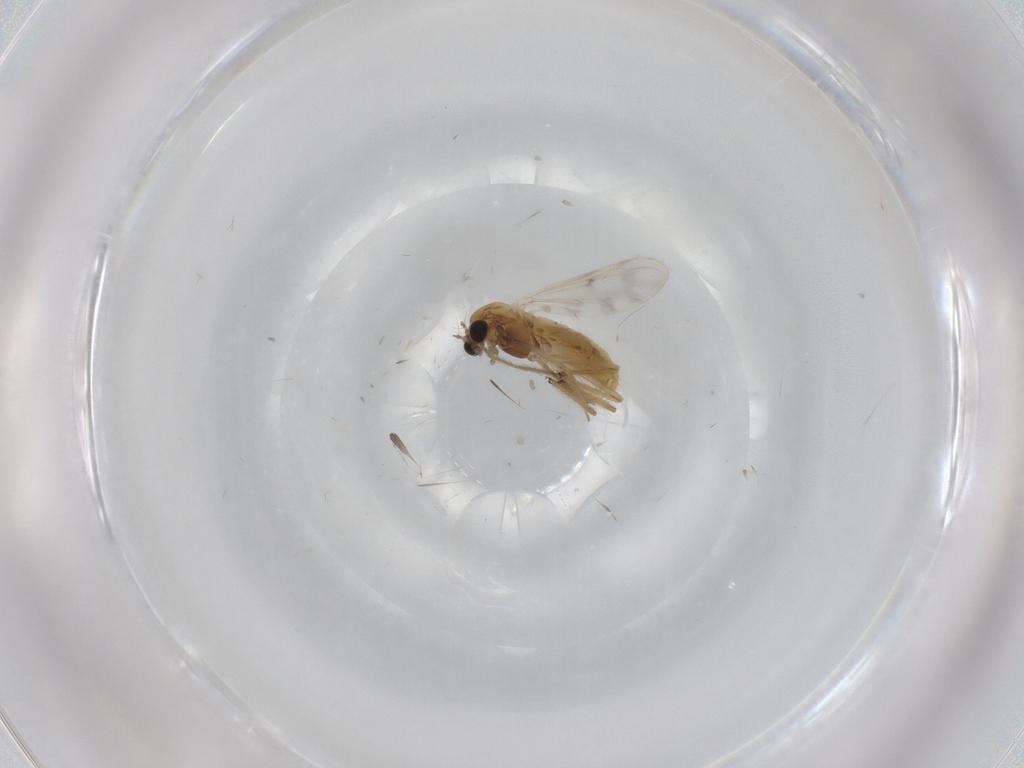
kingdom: Animalia
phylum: Arthropoda
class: Insecta
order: Diptera
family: Chironomidae
